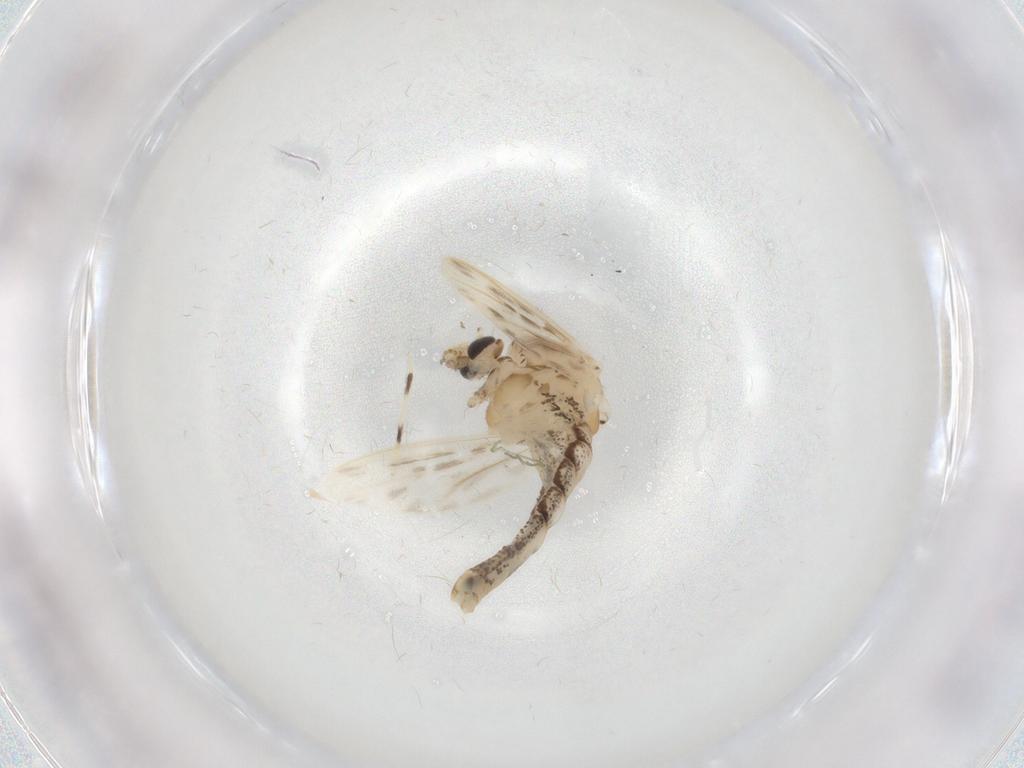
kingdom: Animalia
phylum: Arthropoda
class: Insecta
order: Diptera
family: Chaoboridae
